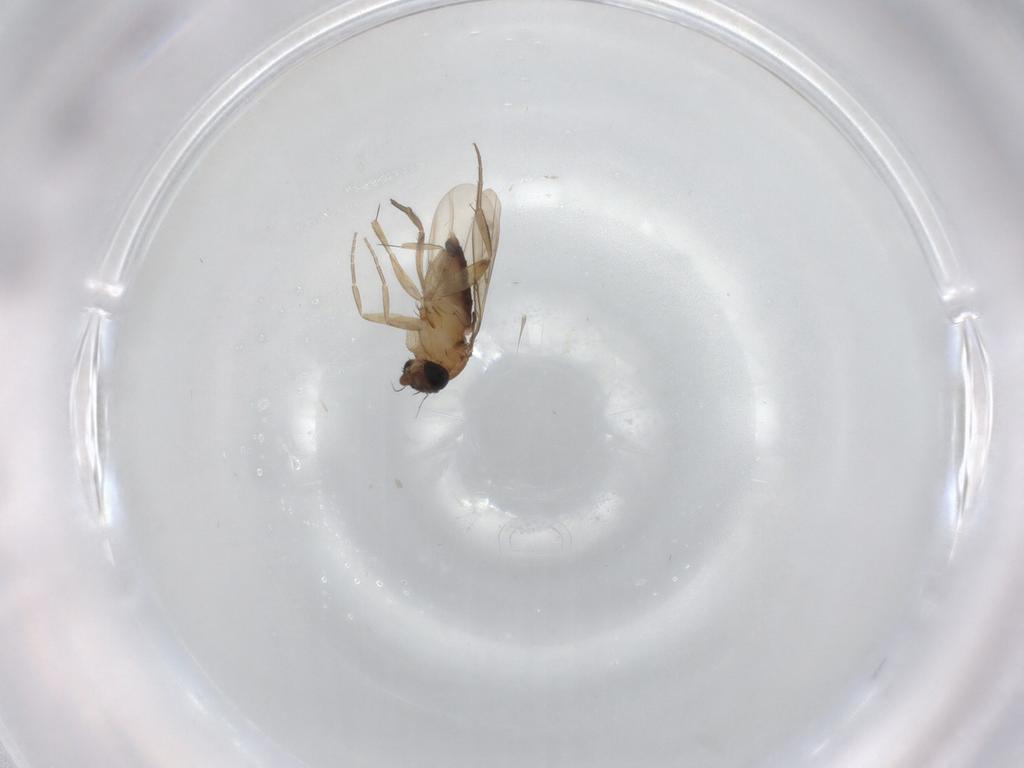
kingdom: Animalia
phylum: Arthropoda
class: Insecta
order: Diptera
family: Phoridae
